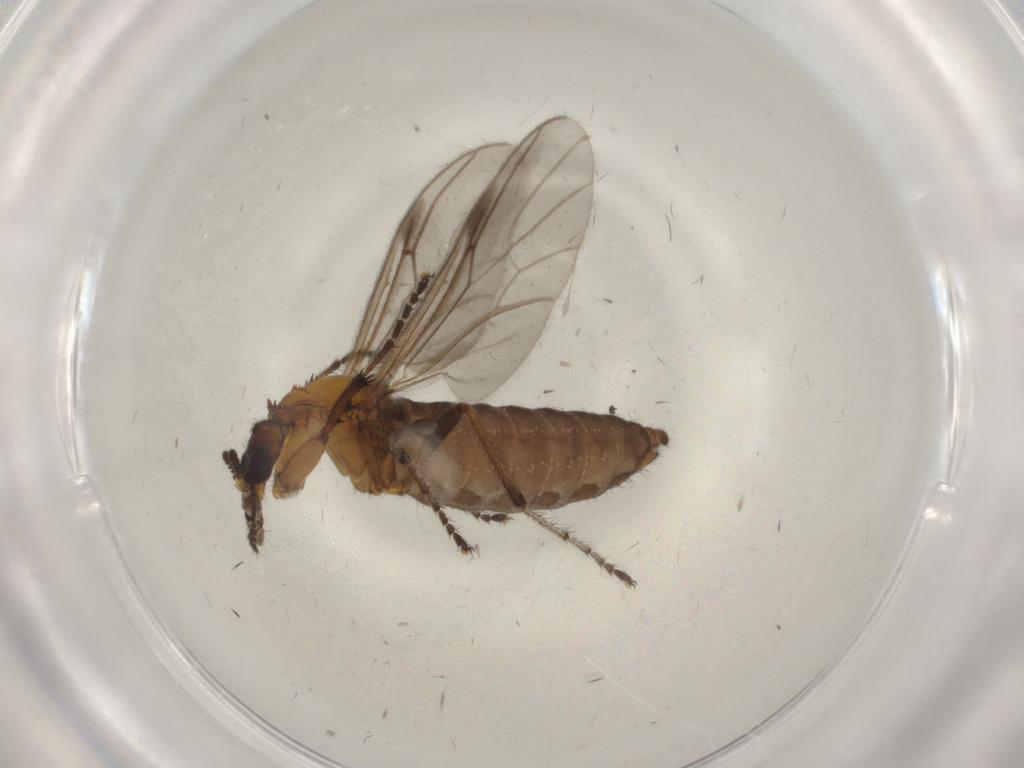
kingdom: Animalia
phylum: Arthropoda
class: Insecta
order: Diptera
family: Bibionidae
